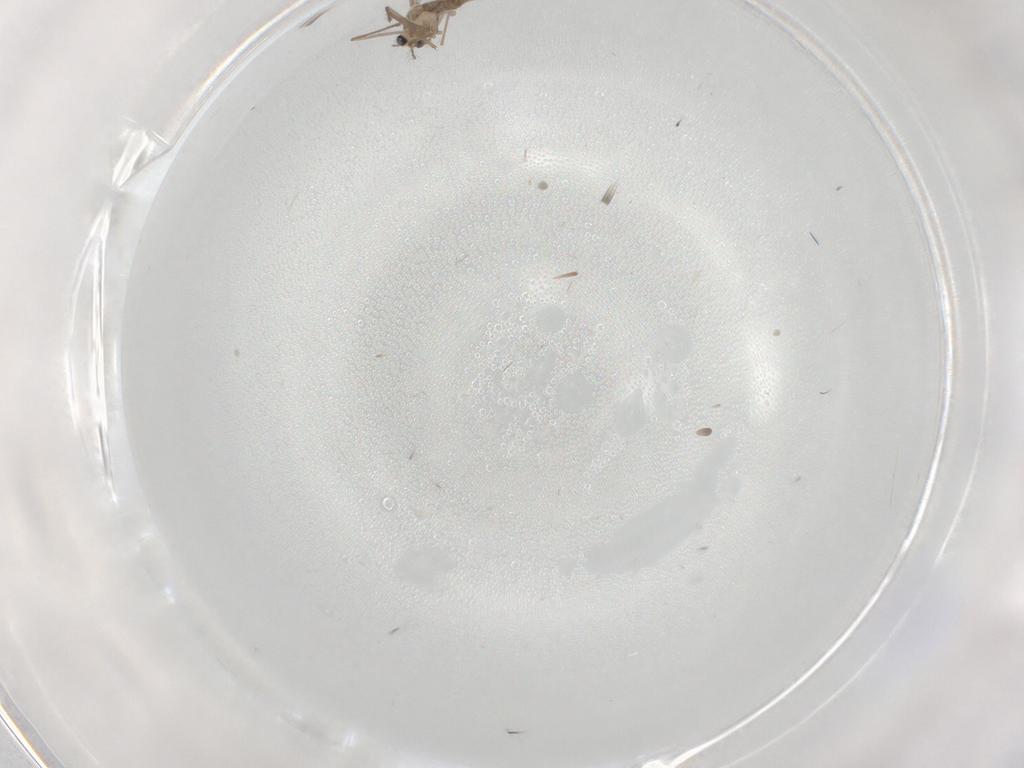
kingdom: Animalia
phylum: Arthropoda
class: Insecta
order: Diptera
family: Chironomidae
